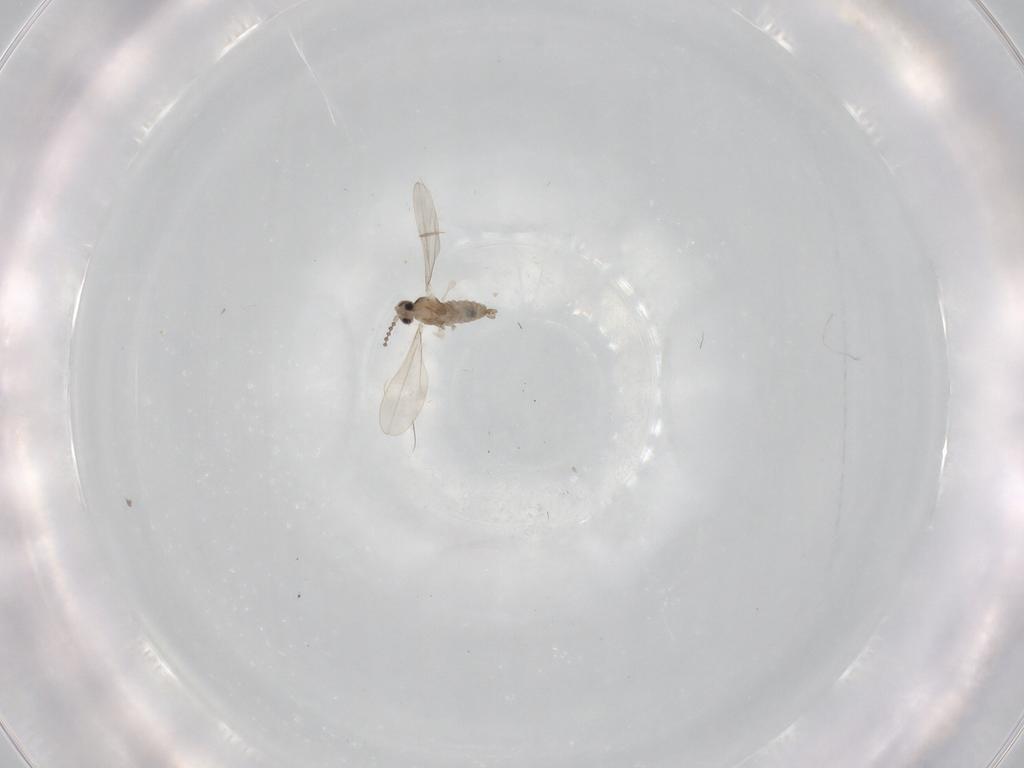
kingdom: Animalia
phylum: Arthropoda
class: Insecta
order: Diptera
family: Cecidomyiidae
